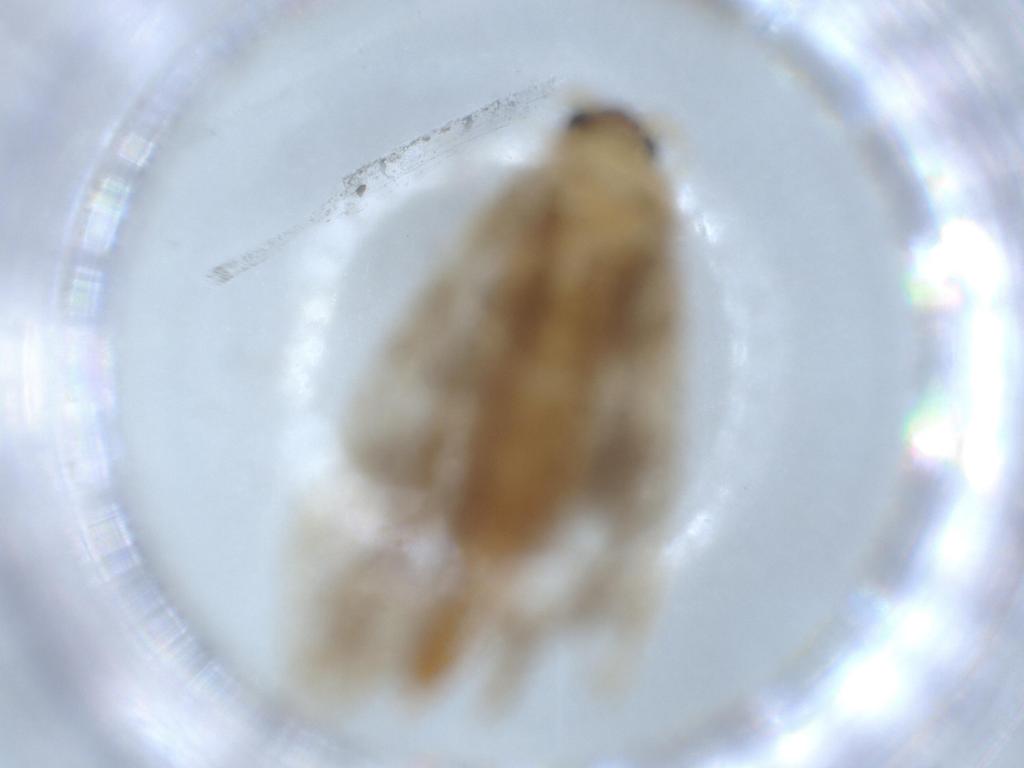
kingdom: Animalia
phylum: Arthropoda
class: Insecta
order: Lepidoptera
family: Tineidae
